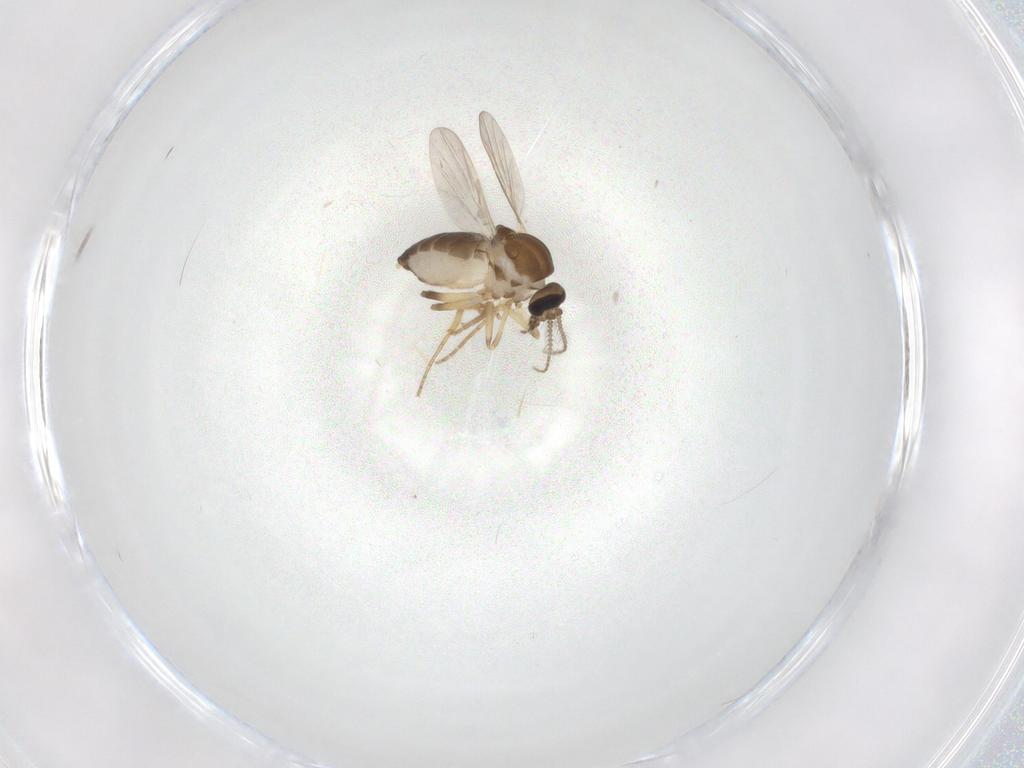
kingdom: Animalia
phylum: Arthropoda
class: Insecta
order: Diptera
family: Ceratopogonidae
